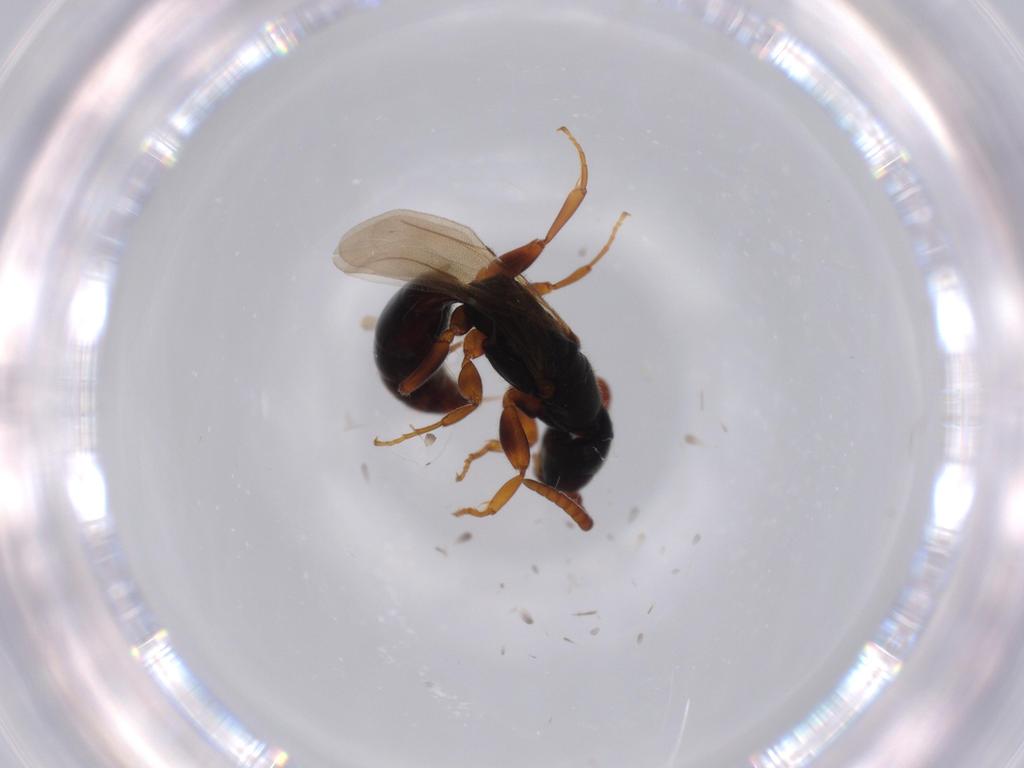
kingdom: Animalia
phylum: Arthropoda
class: Insecta
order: Hymenoptera
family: Bethylidae
